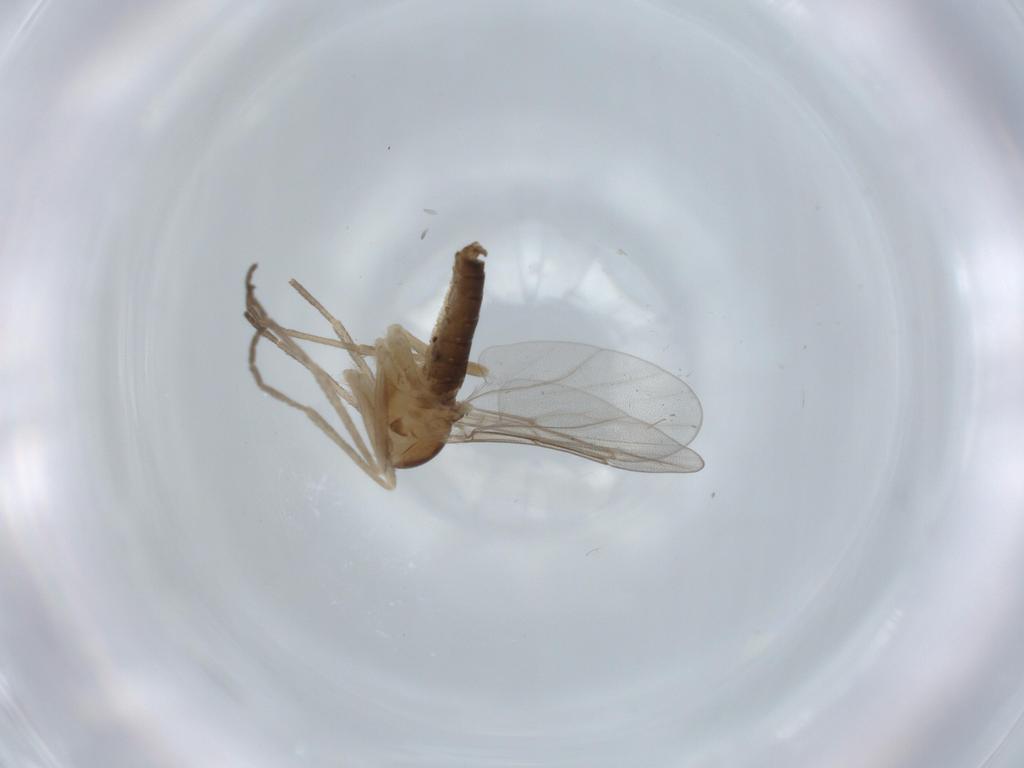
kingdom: Animalia
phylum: Arthropoda
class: Insecta
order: Diptera
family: Cecidomyiidae
